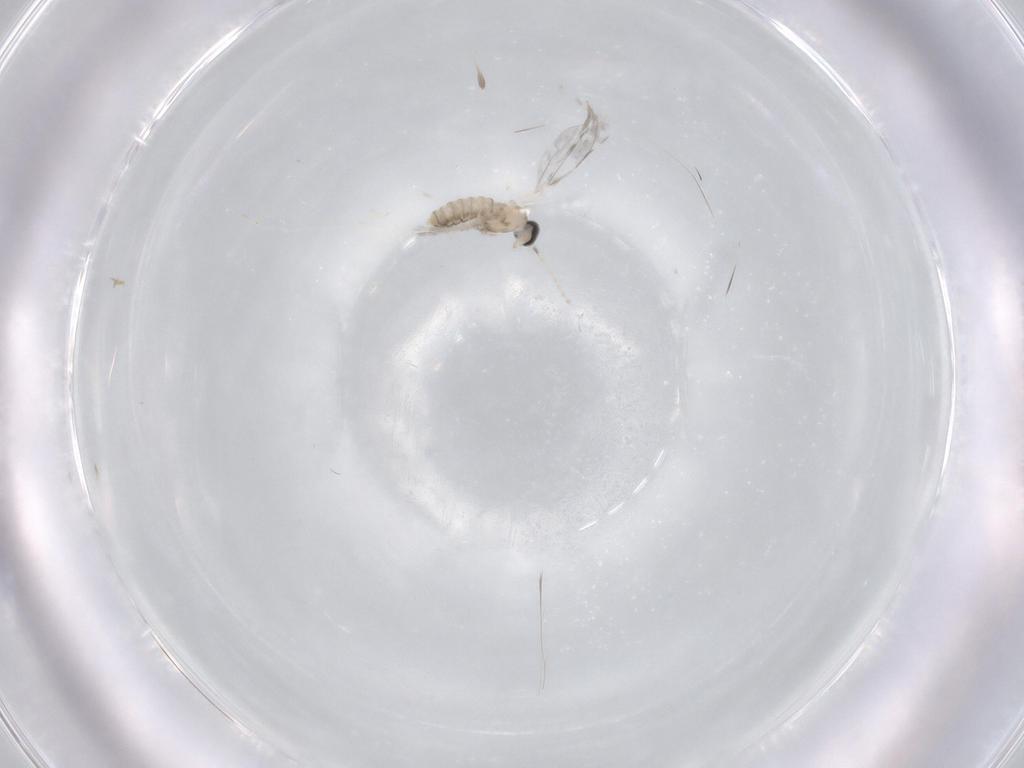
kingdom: Animalia
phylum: Arthropoda
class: Insecta
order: Diptera
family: Cecidomyiidae
